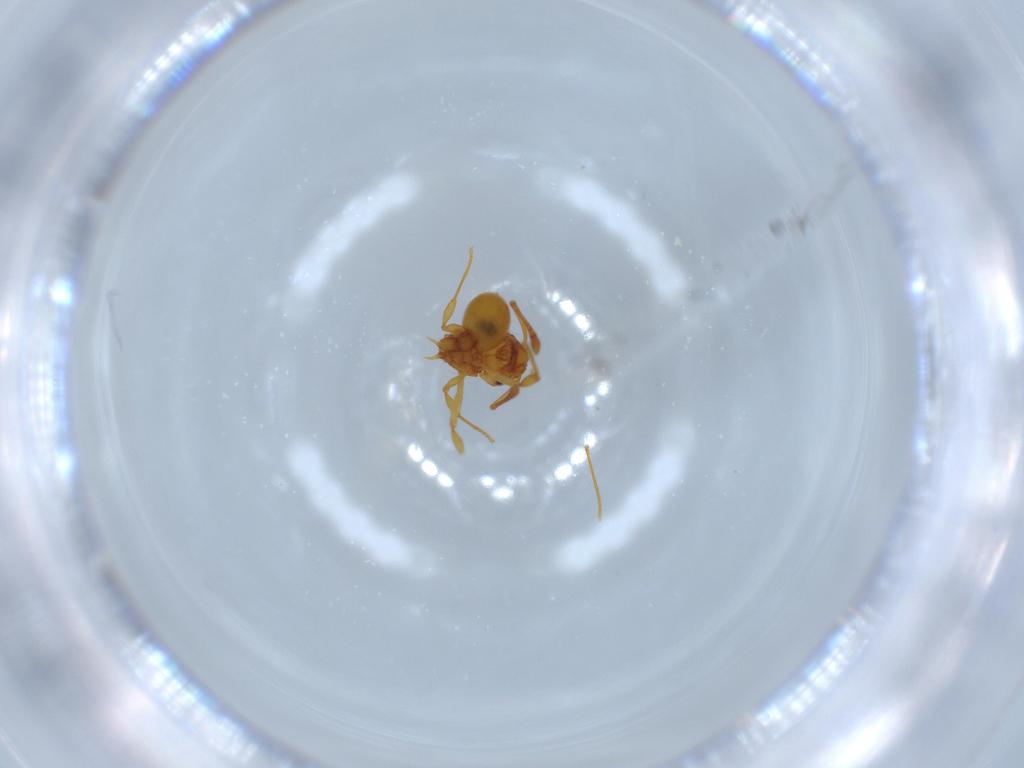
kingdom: Animalia
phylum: Arthropoda
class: Insecta
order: Hymenoptera
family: Formicidae
